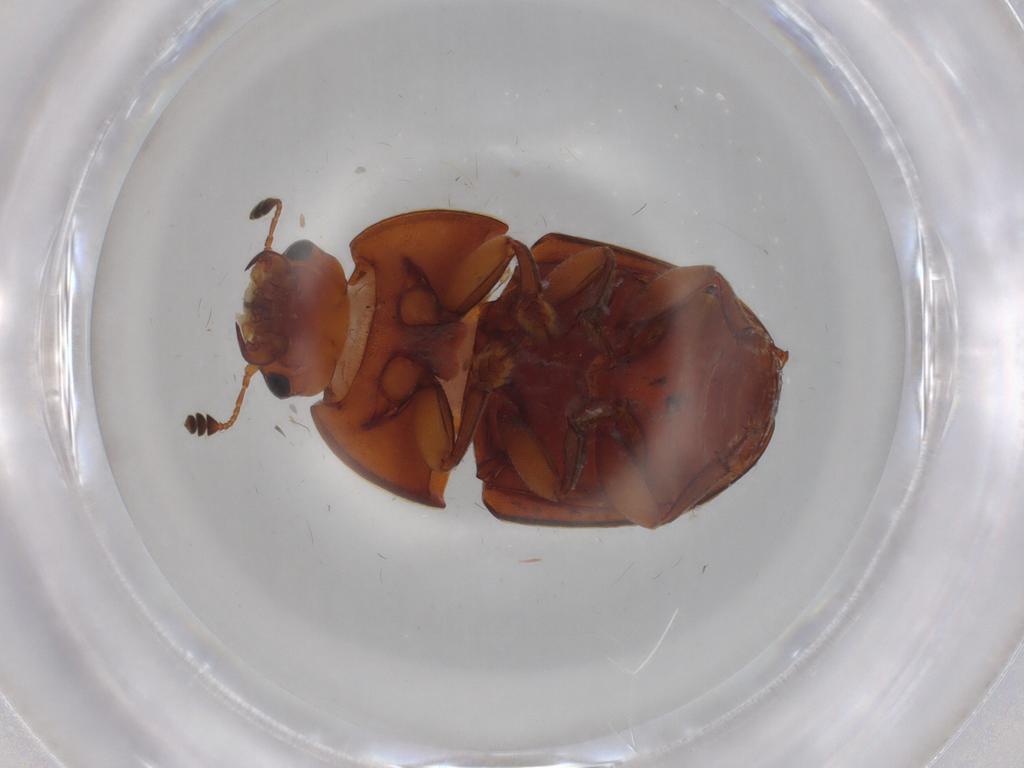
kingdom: Animalia
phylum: Arthropoda
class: Insecta
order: Coleoptera
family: Nitidulidae
